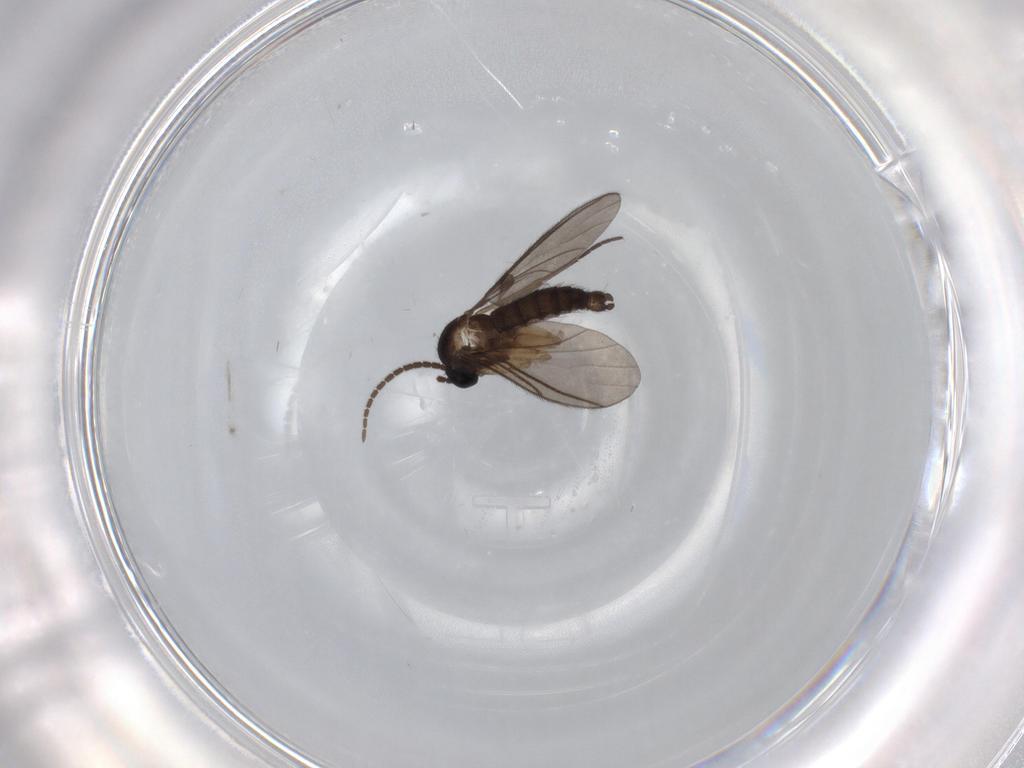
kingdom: Animalia
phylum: Arthropoda
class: Insecta
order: Diptera
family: Sciaridae
